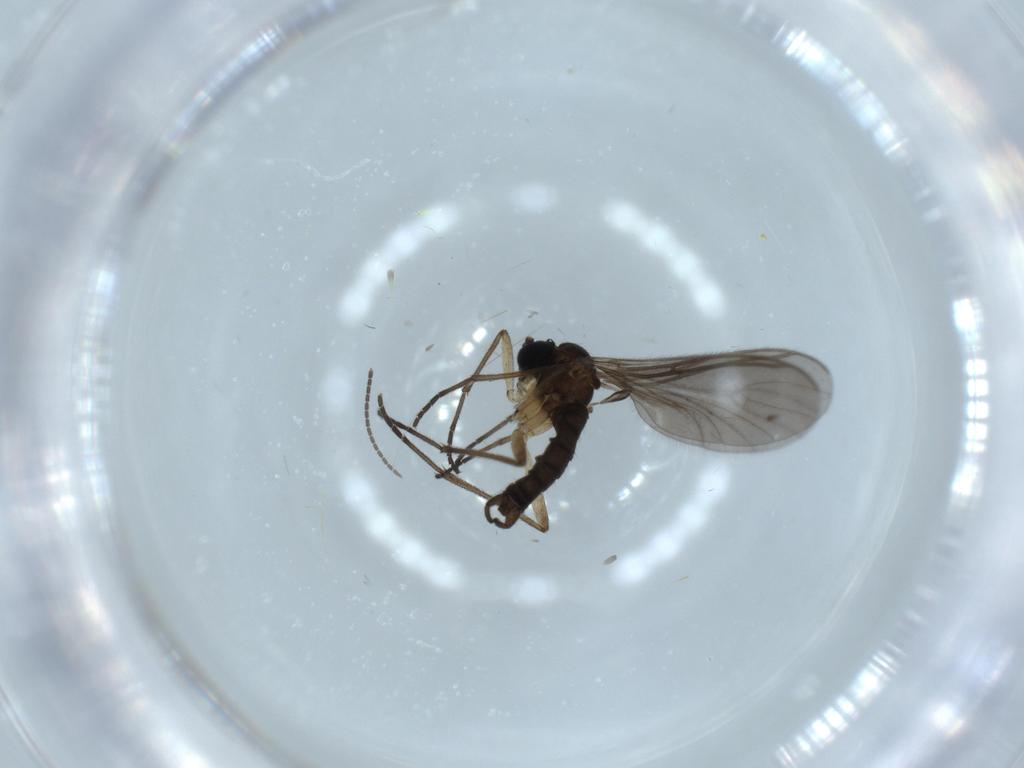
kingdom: Animalia
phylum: Arthropoda
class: Insecta
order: Diptera
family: Sciaridae
